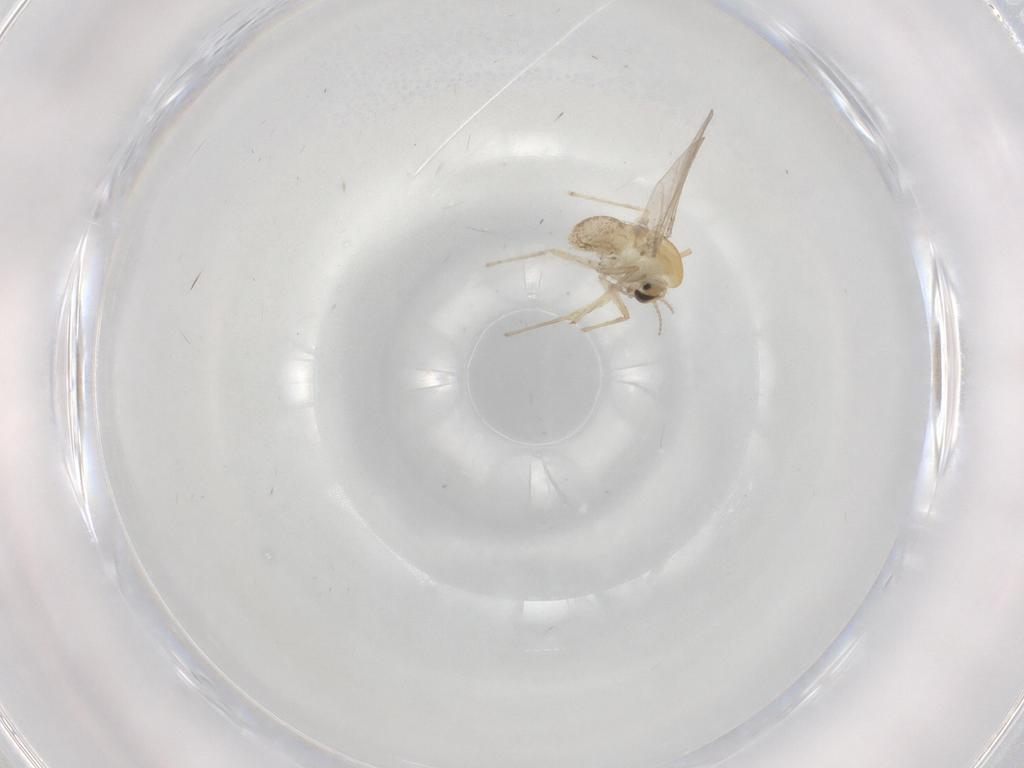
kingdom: Animalia
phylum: Arthropoda
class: Insecta
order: Diptera
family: Chironomidae
